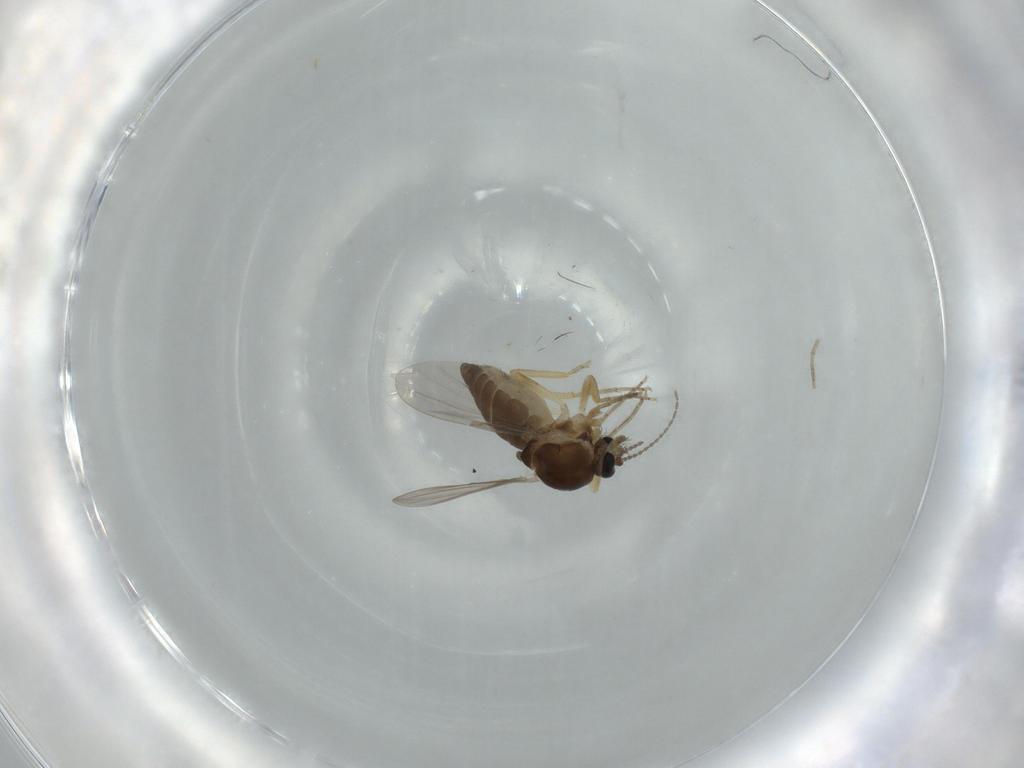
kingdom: Animalia
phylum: Arthropoda
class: Insecta
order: Diptera
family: Ceratopogonidae
